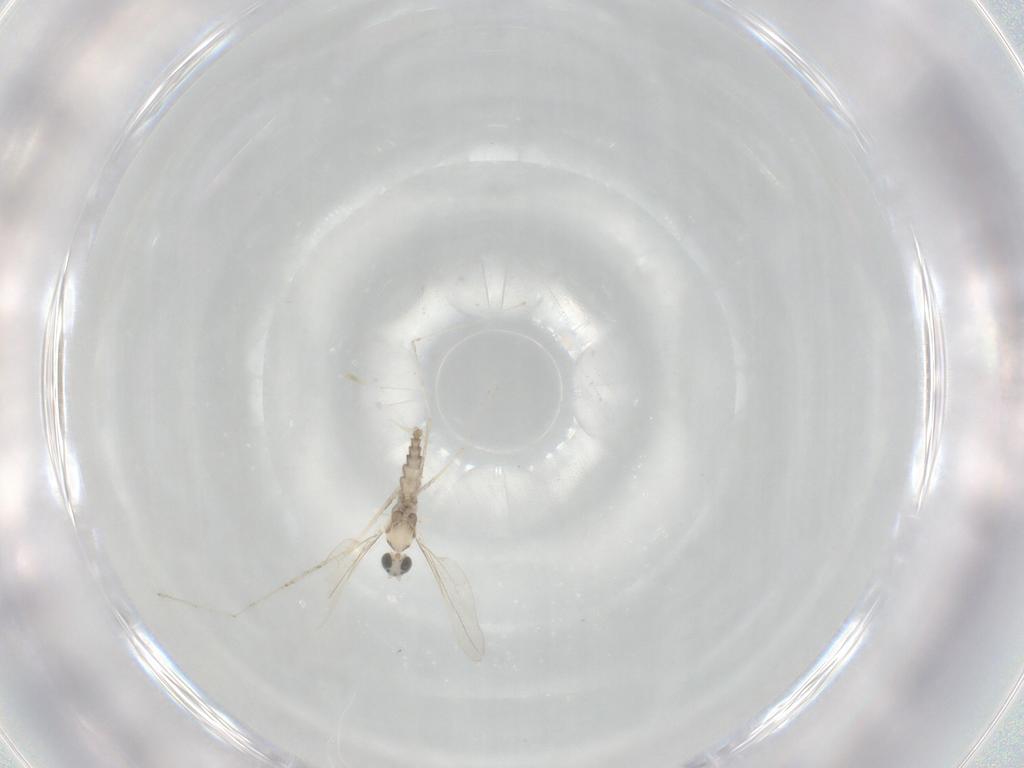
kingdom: Animalia
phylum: Arthropoda
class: Insecta
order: Diptera
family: Cecidomyiidae
